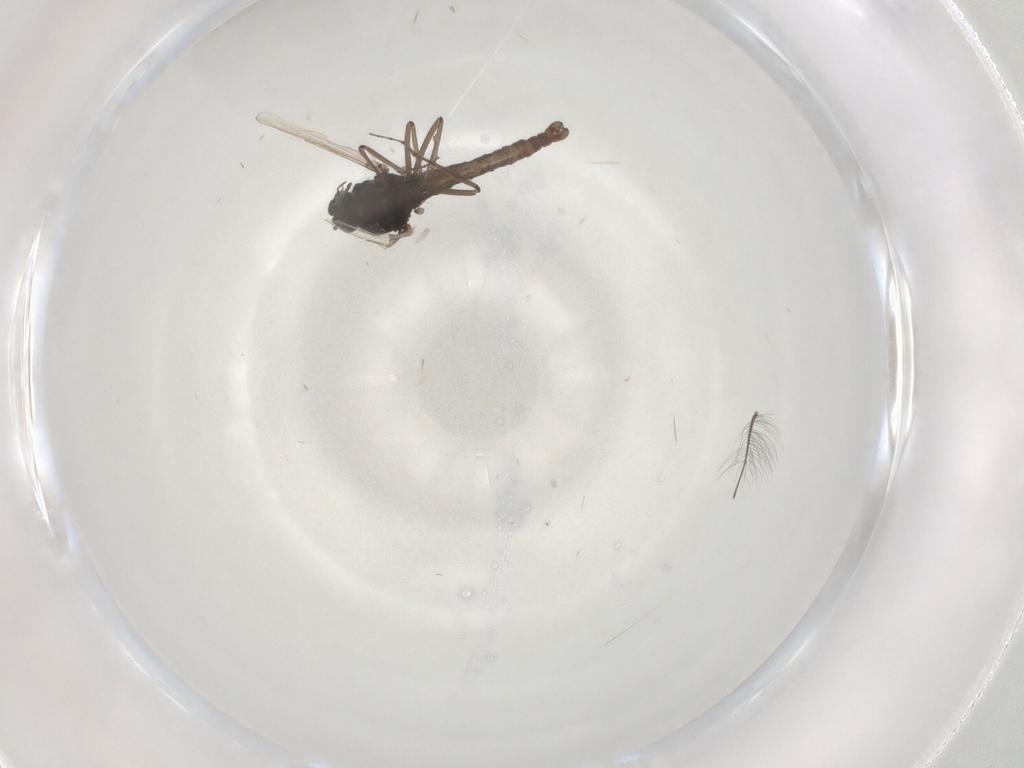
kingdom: Animalia
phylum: Arthropoda
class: Insecta
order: Diptera
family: Ceratopogonidae
